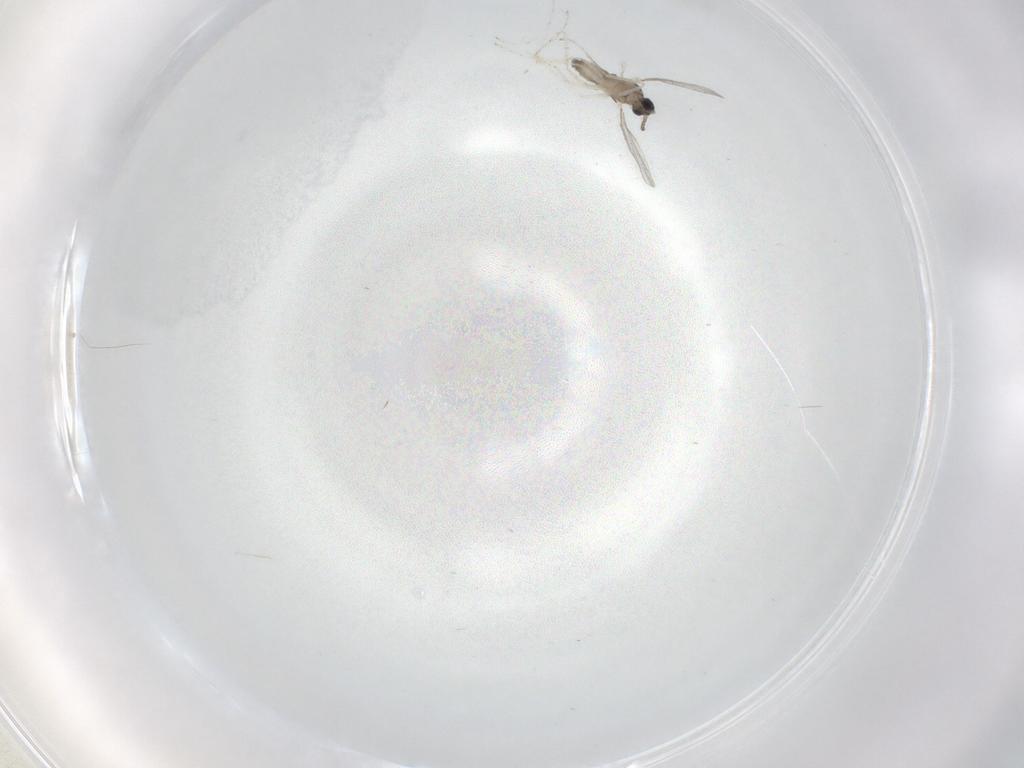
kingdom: Animalia
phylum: Arthropoda
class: Insecta
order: Diptera
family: Cecidomyiidae
